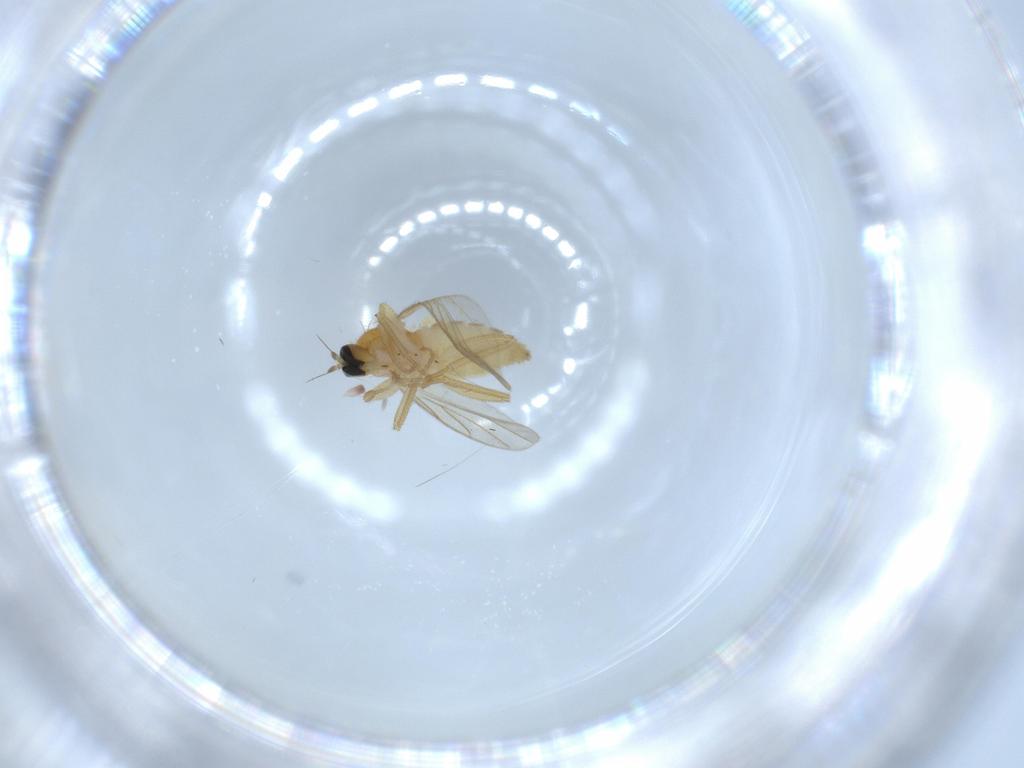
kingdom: Animalia
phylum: Arthropoda
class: Insecta
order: Diptera
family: Hybotidae
